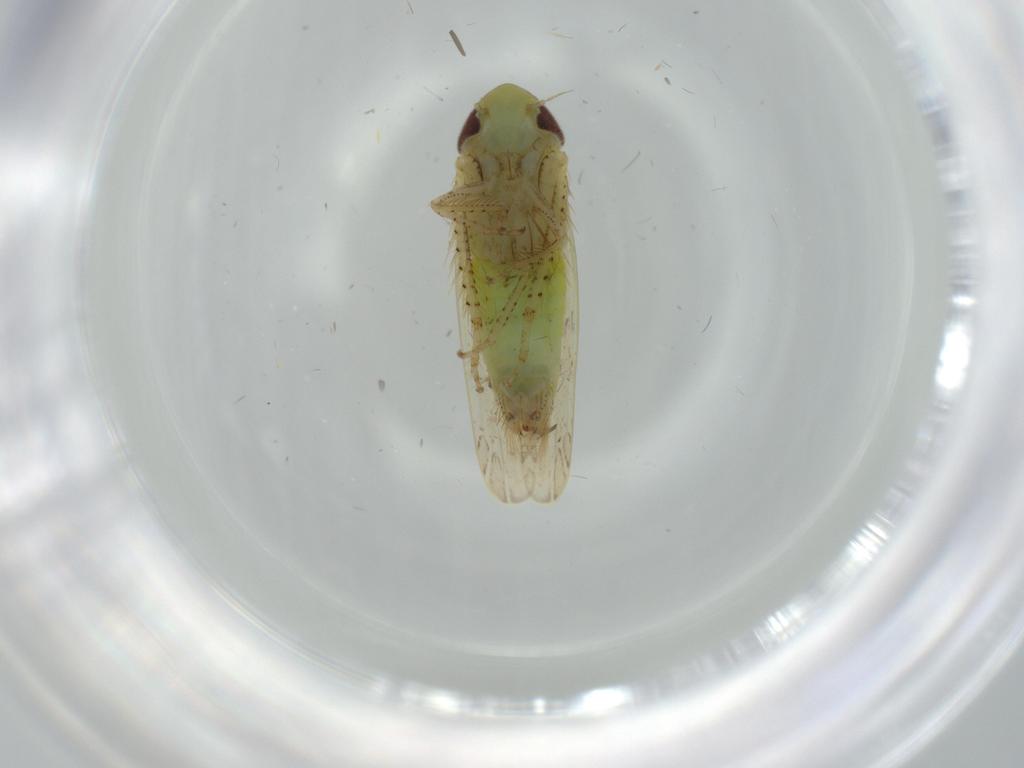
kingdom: Animalia
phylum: Arthropoda
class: Insecta
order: Hemiptera
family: Cicadellidae
